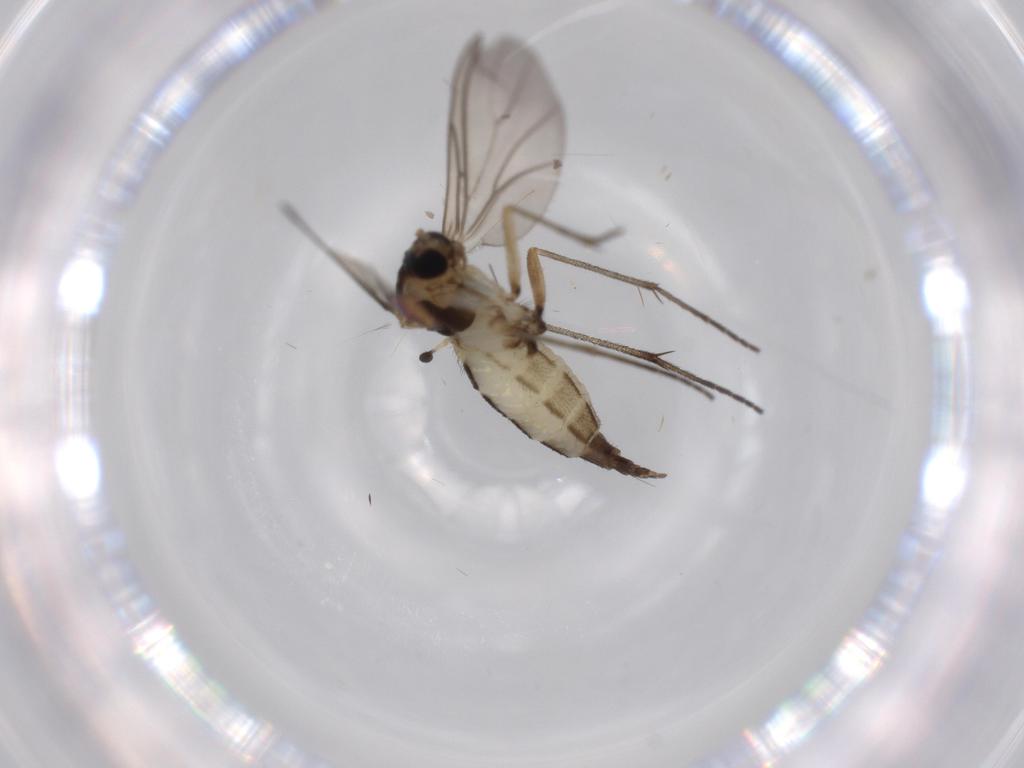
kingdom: Animalia
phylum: Arthropoda
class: Insecta
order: Diptera
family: Sciaridae
